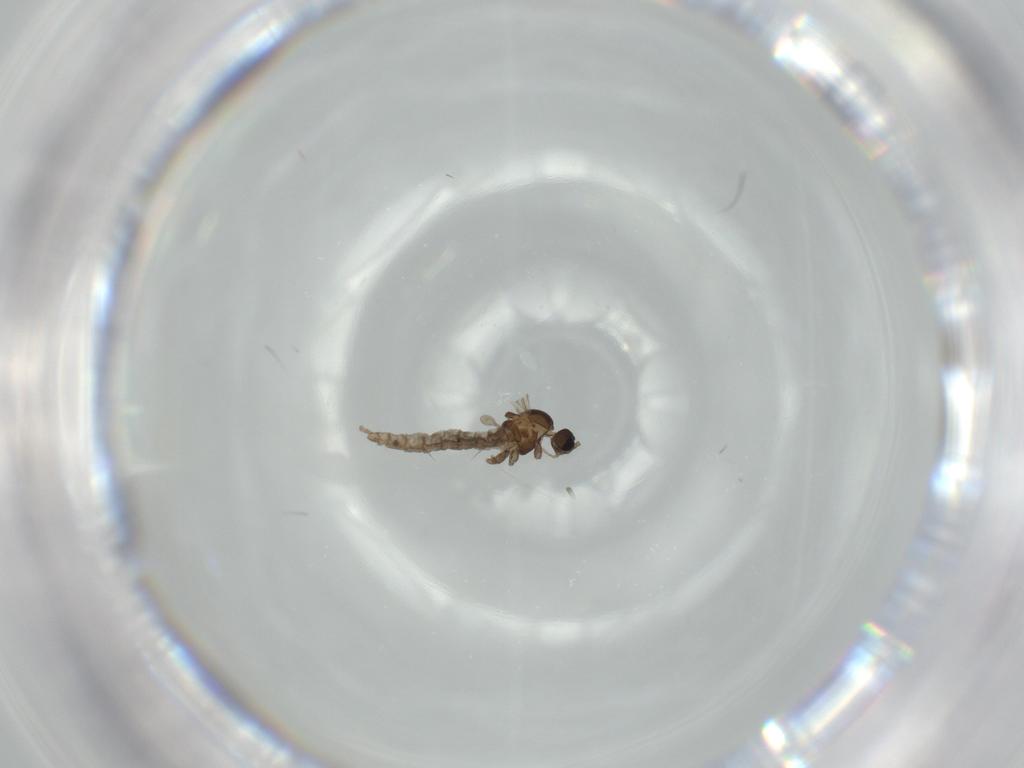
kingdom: Animalia
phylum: Arthropoda
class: Insecta
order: Diptera
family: Cecidomyiidae
